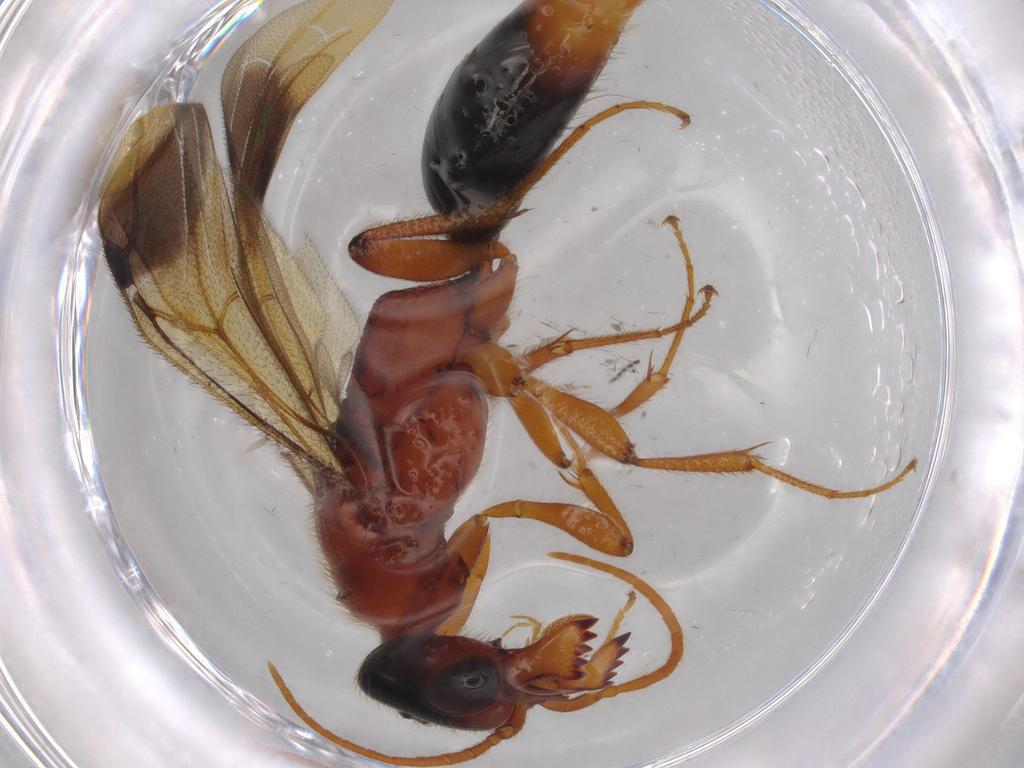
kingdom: Animalia
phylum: Arthropoda
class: Insecta
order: Hymenoptera
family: Bethylidae
